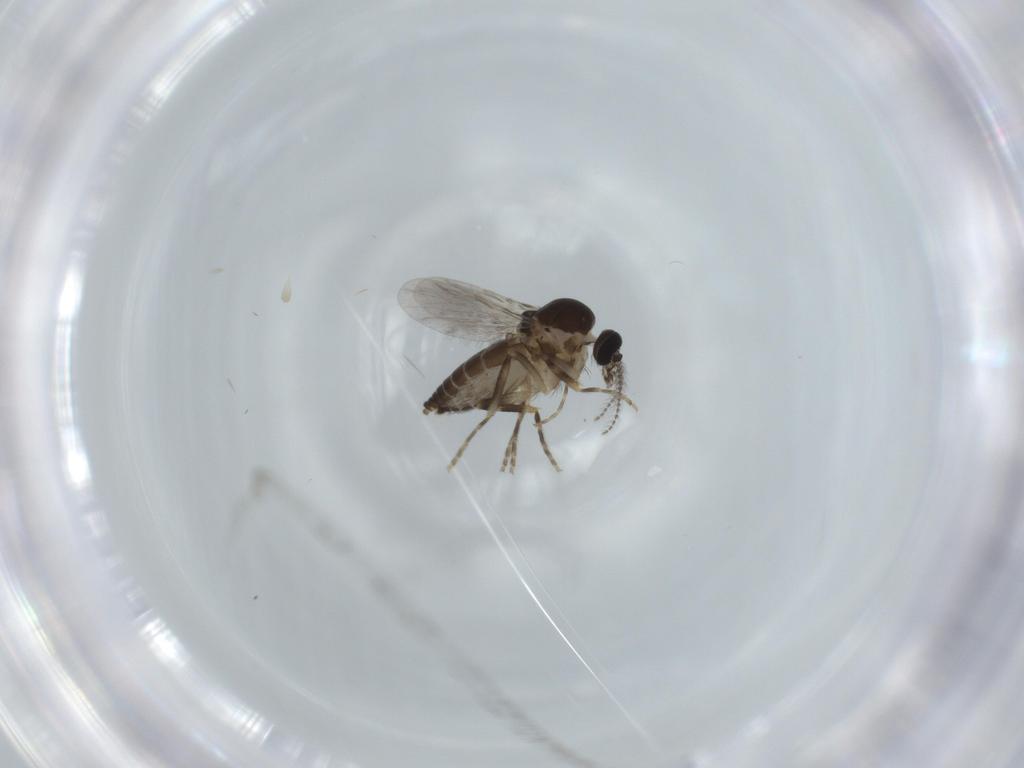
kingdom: Animalia
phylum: Arthropoda
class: Insecta
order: Diptera
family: Ceratopogonidae
